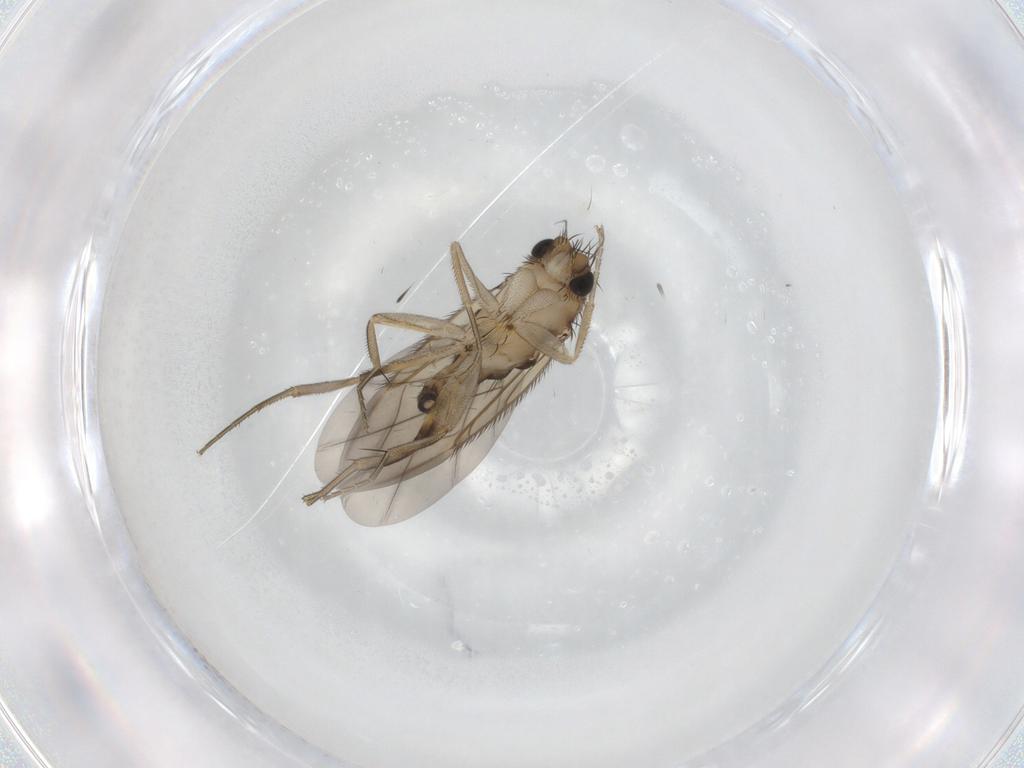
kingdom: Animalia
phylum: Arthropoda
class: Insecta
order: Diptera
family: Phoridae
